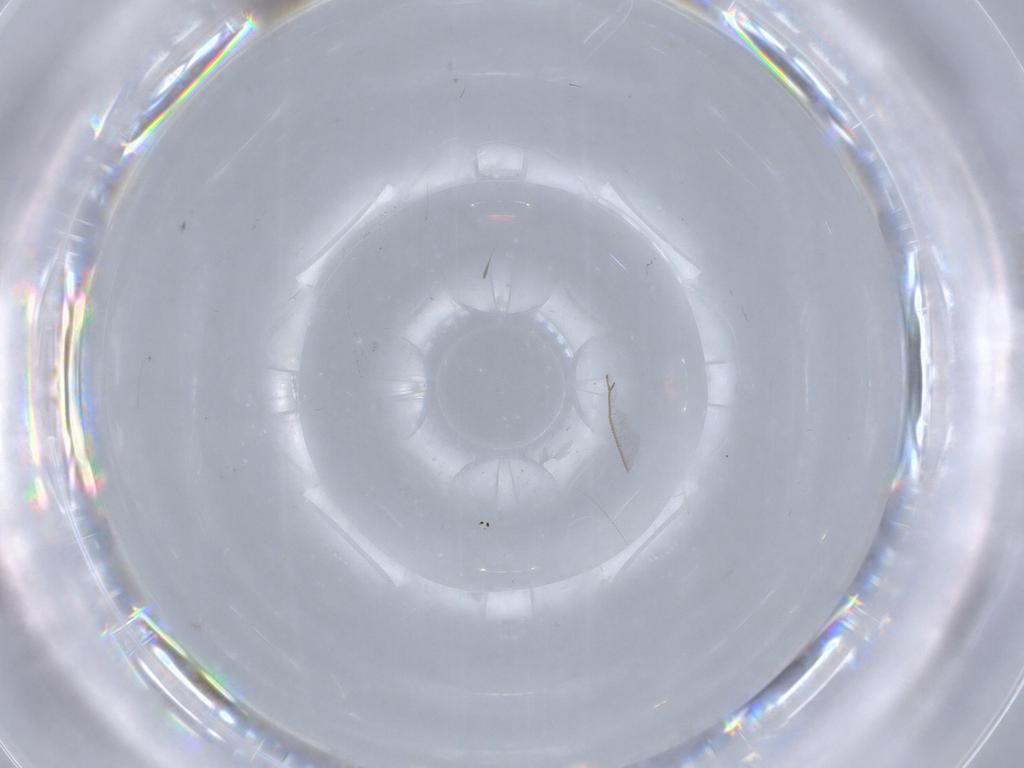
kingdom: Animalia
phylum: Arthropoda
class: Insecta
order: Diptera
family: Cecidomyiidae
